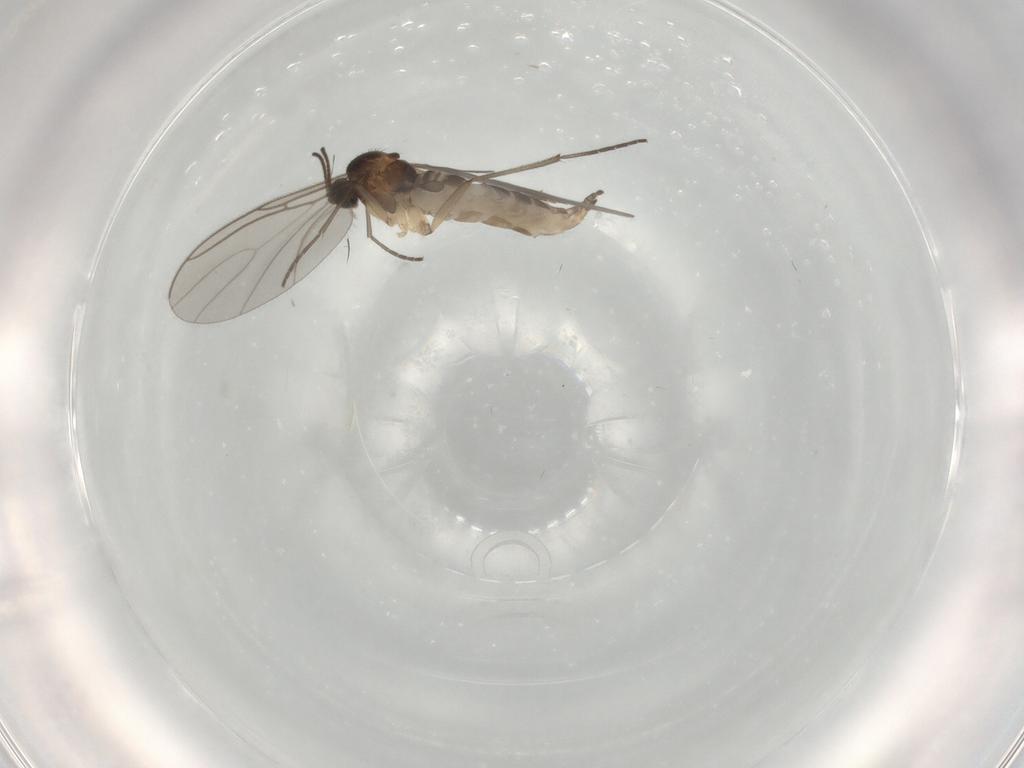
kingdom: Animalia
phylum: Arthropoda
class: Insecta
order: Diptera
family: Sciaridae
